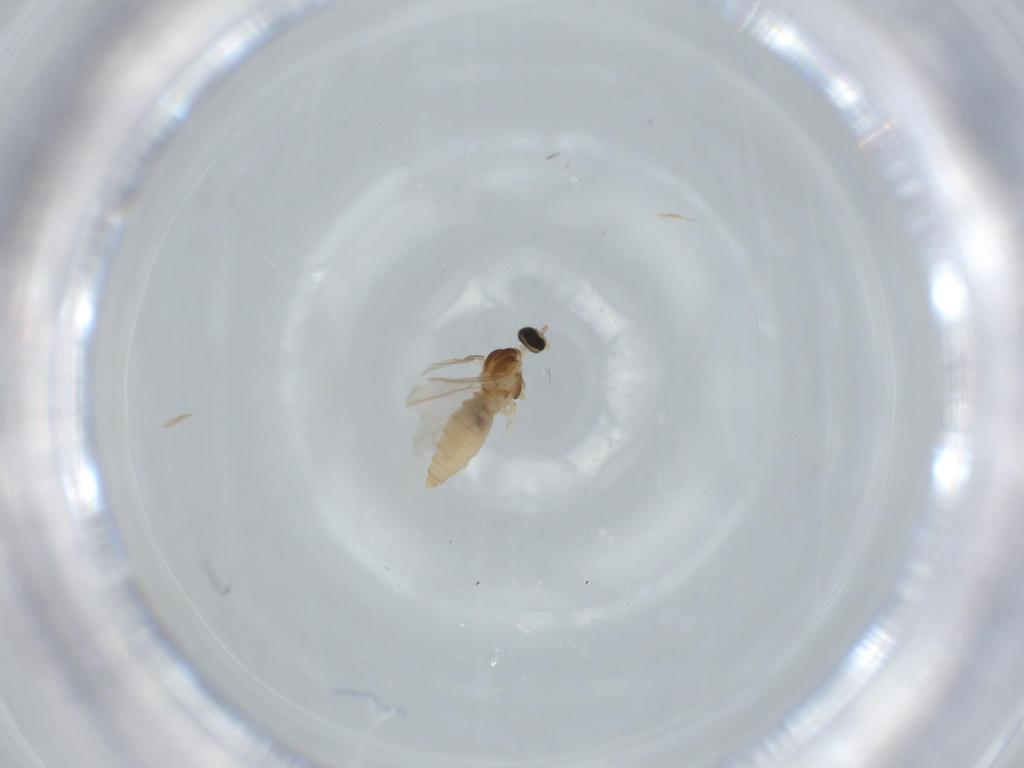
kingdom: Animalia
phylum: Arthropoda
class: Insecta
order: Diptera
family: Cecidomyiidae
